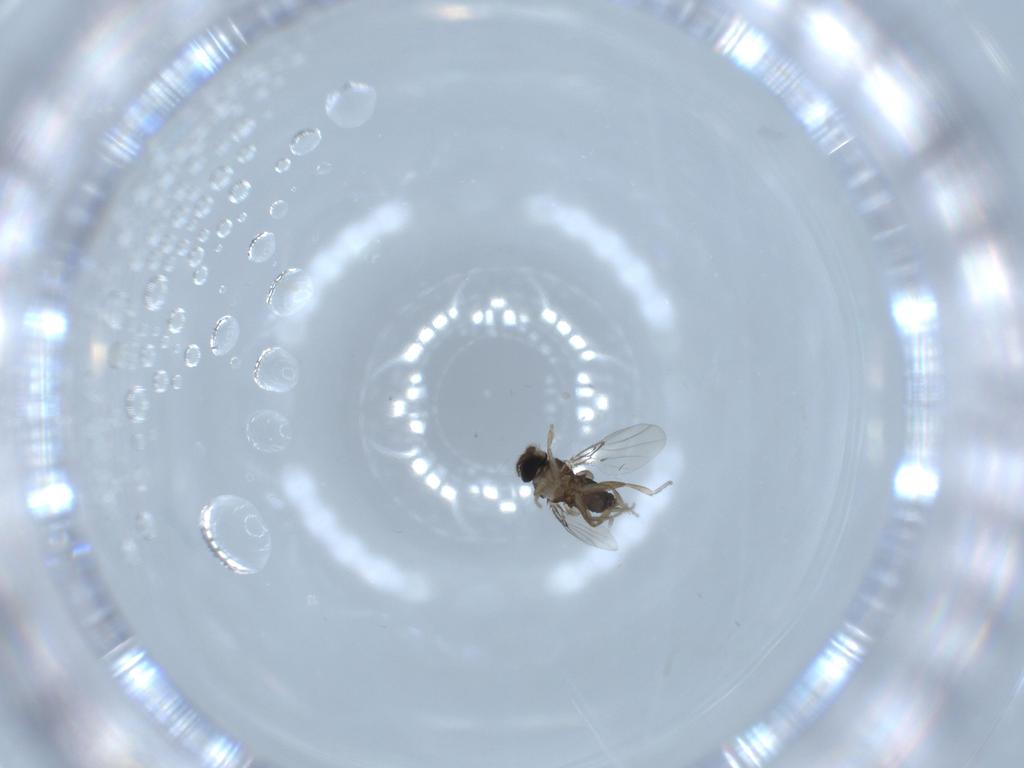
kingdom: Animalia
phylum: Arthropoda
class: Insecta
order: Diptera
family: Phoridae
